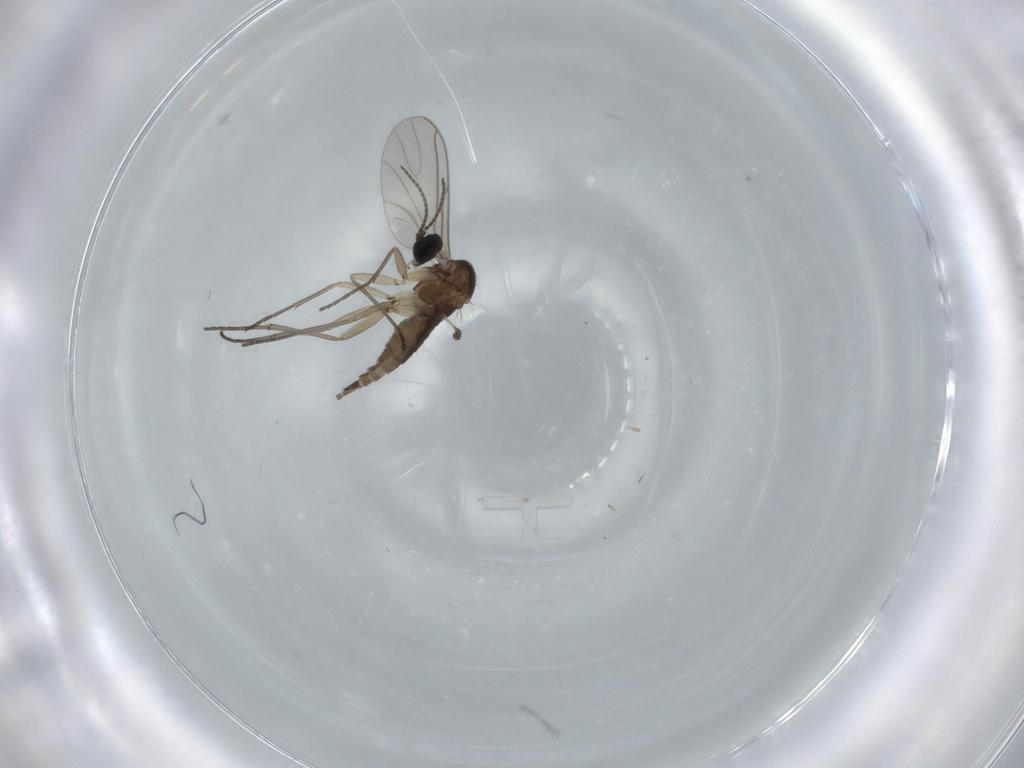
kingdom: Animalia
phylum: Arthropoda
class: Insecta
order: Diptera
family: Sciaridae
